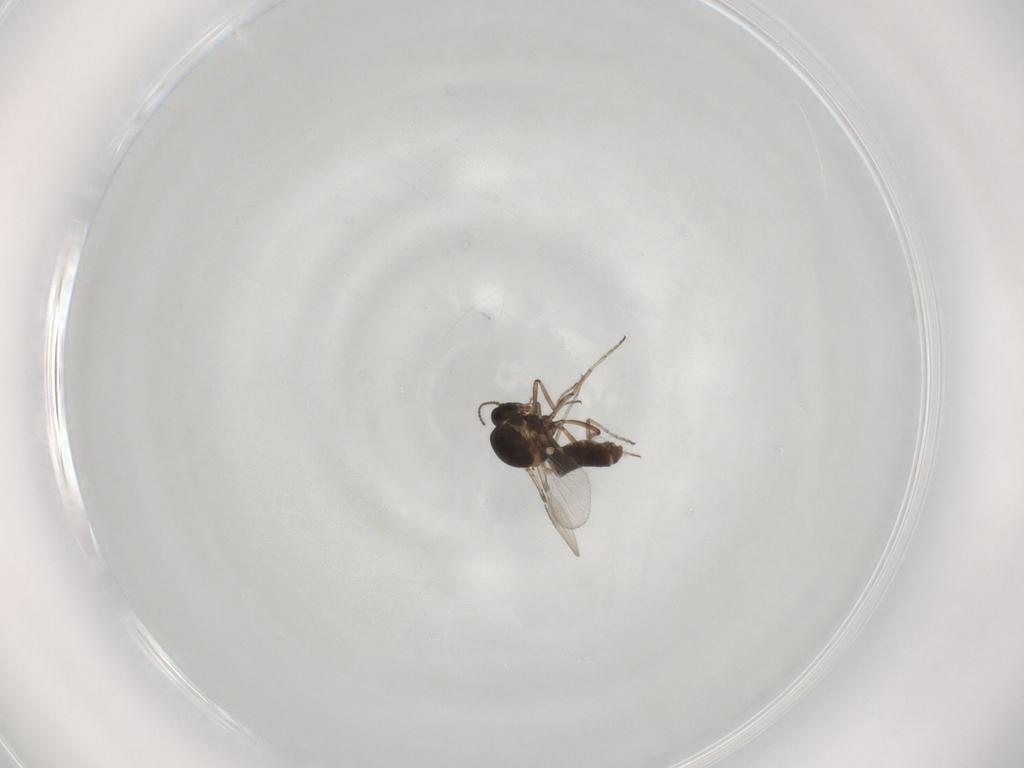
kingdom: Animalia
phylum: Arthropoda
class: Insecta
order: Diptera
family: Ceratopogonidae
